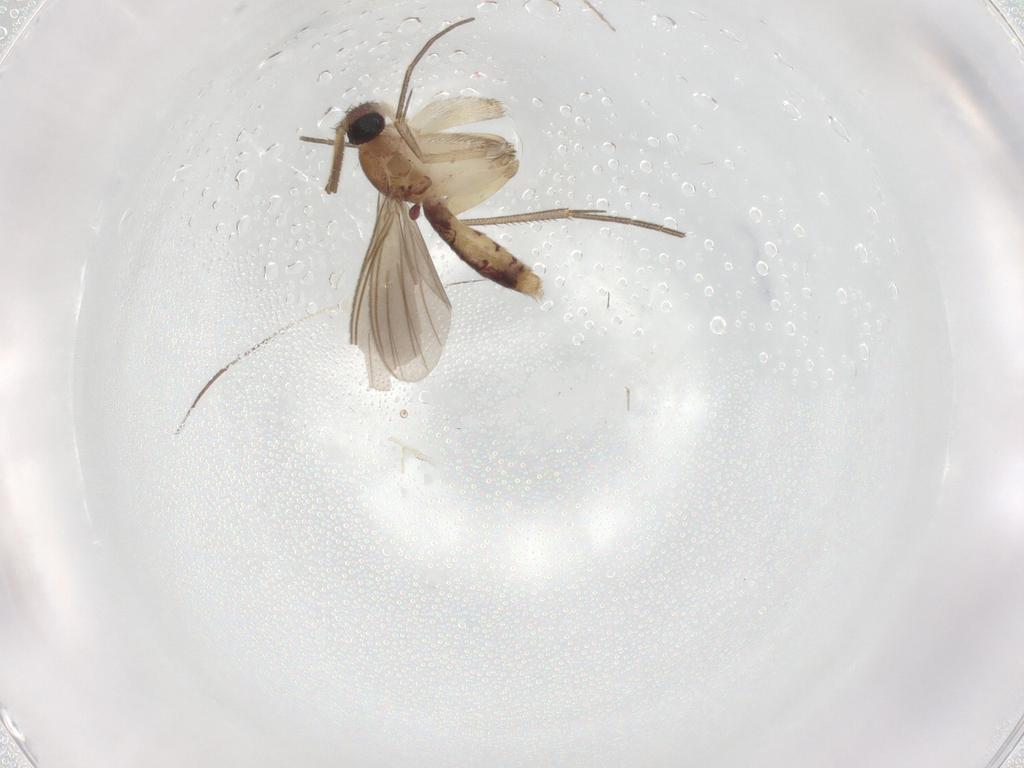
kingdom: Animalia
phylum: Arthropoda
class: Insecta
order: Diptera
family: Mycetophilidae
